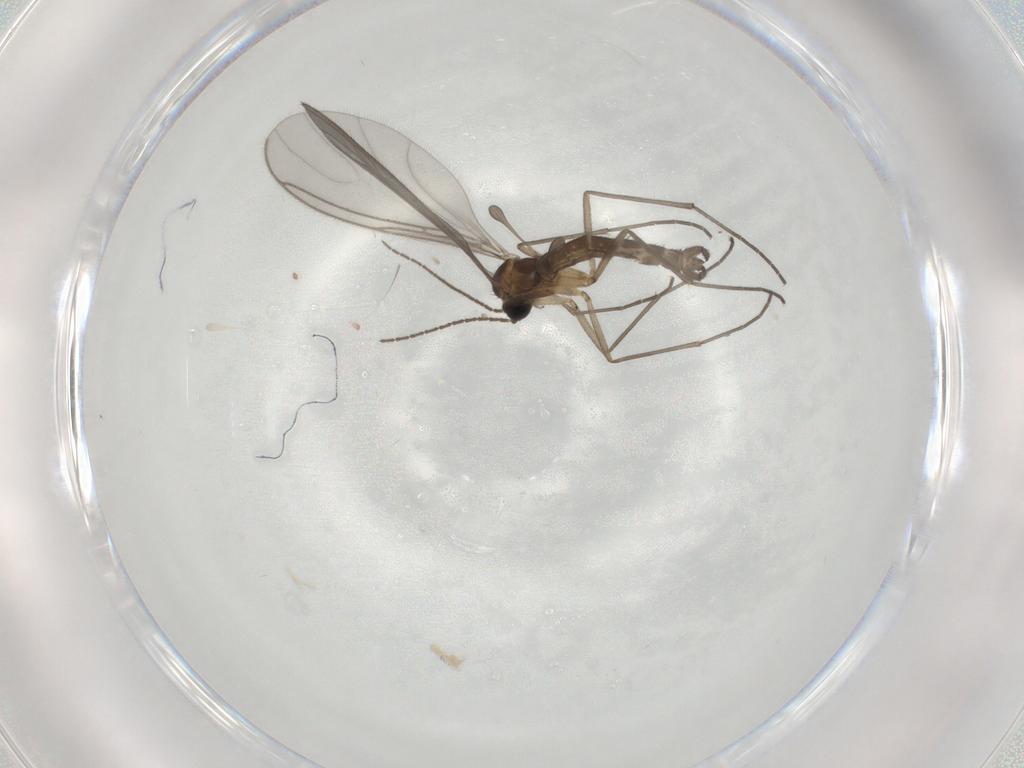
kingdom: Animalia
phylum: Arthropoda
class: Insecta
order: Diptera
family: Sciaridae
